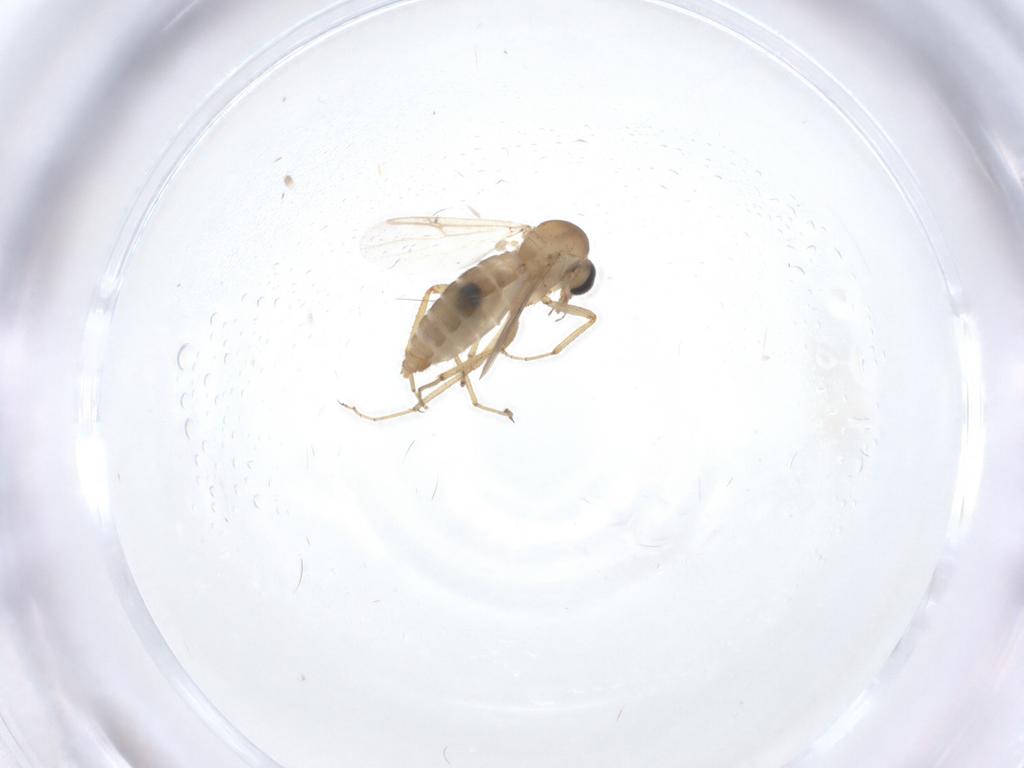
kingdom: Animalia
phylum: Arthropoda
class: Insecta
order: Diptera
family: Ceratopogonidae
